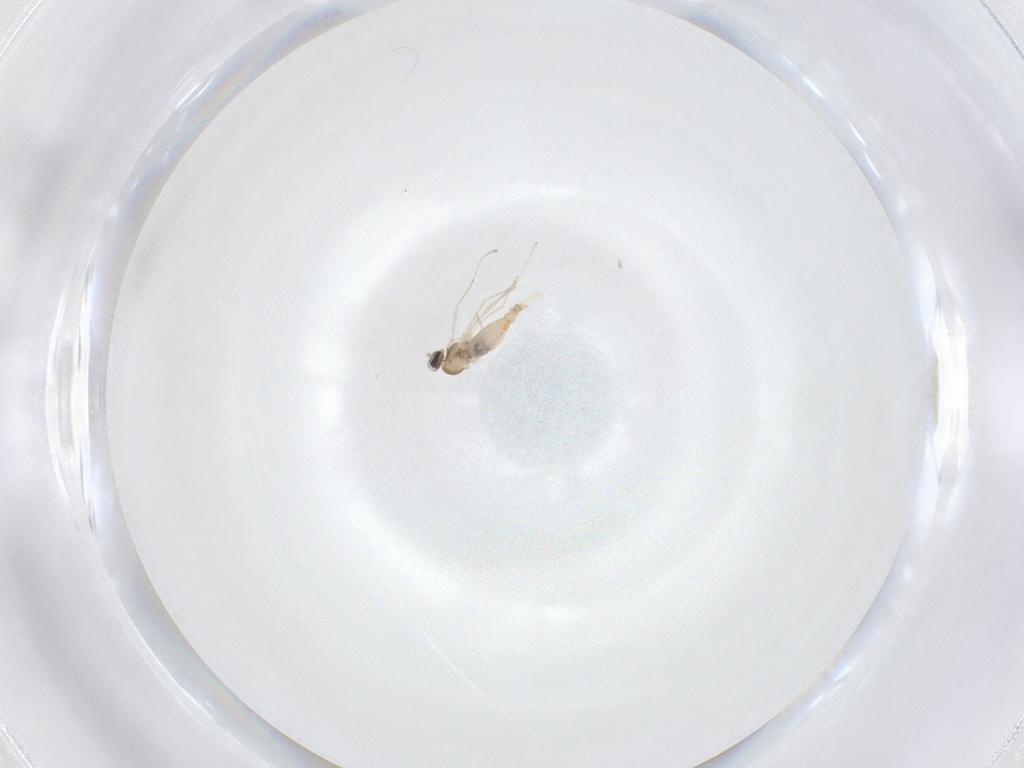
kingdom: Animalia
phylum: Arthropoda
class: Insecta
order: Diptera
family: Cecidomyiidae
